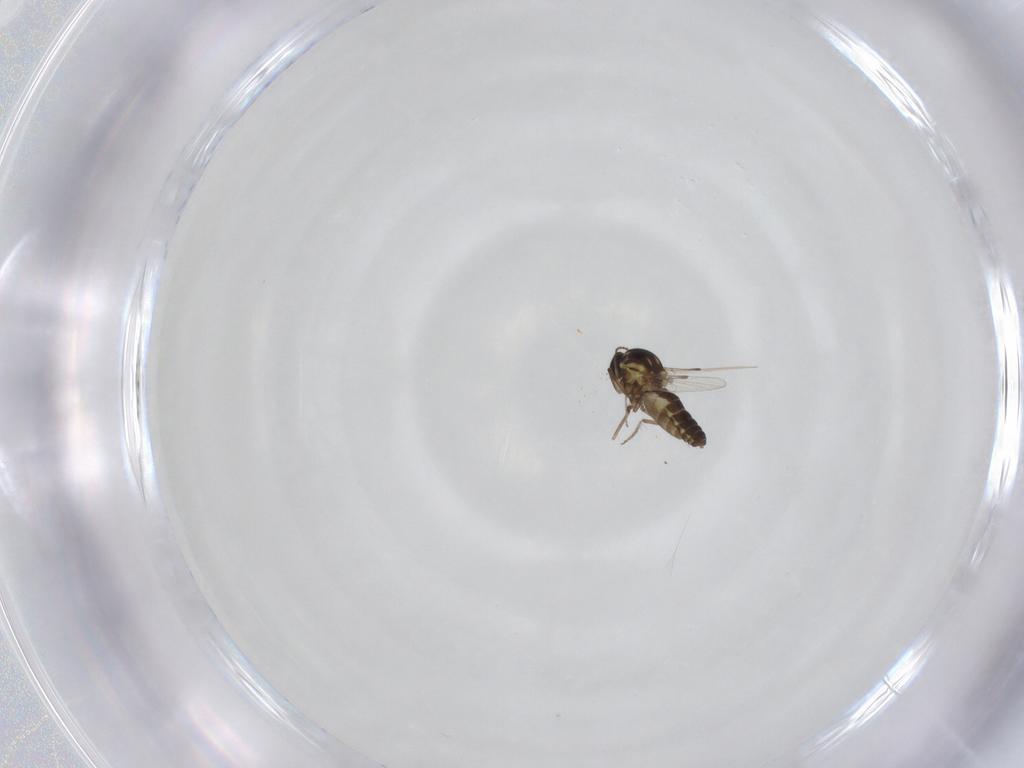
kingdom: Animalia
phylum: Arthropoda
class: Insecta
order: Diptera
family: Ceratopogonidae
